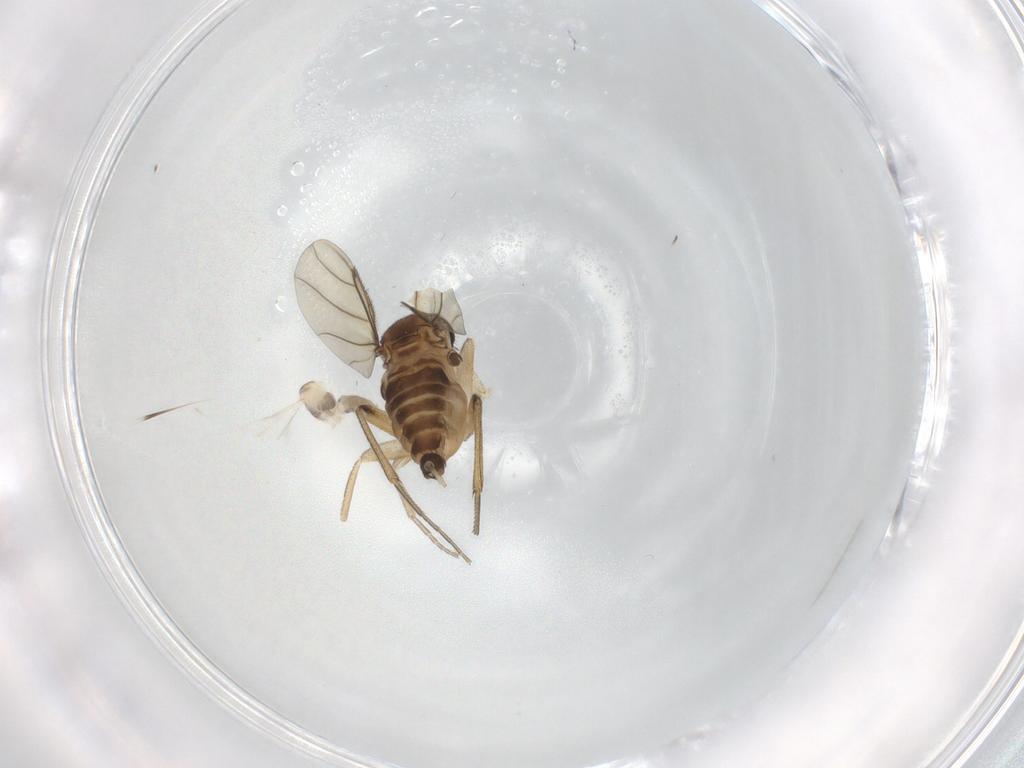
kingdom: Animalia
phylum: Arthropoda
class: Insecta
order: Diptera
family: Cecidomyiidae
